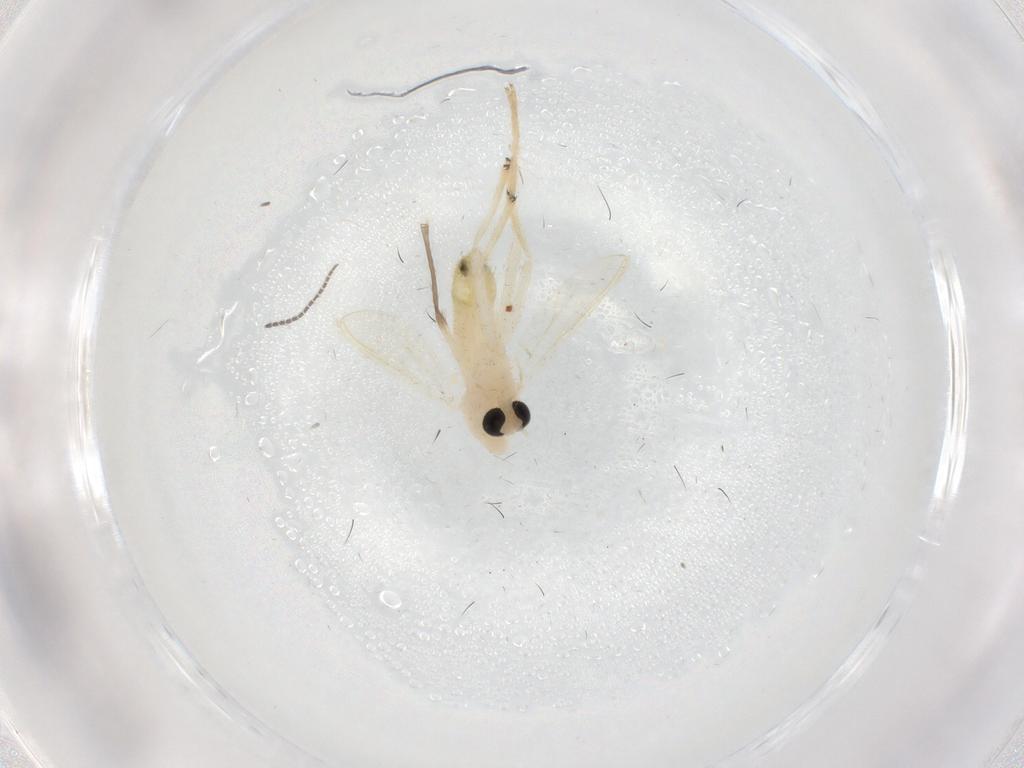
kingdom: Animalia
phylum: Arthropoda
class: Insecta
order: Diptera
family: Chironomidae
